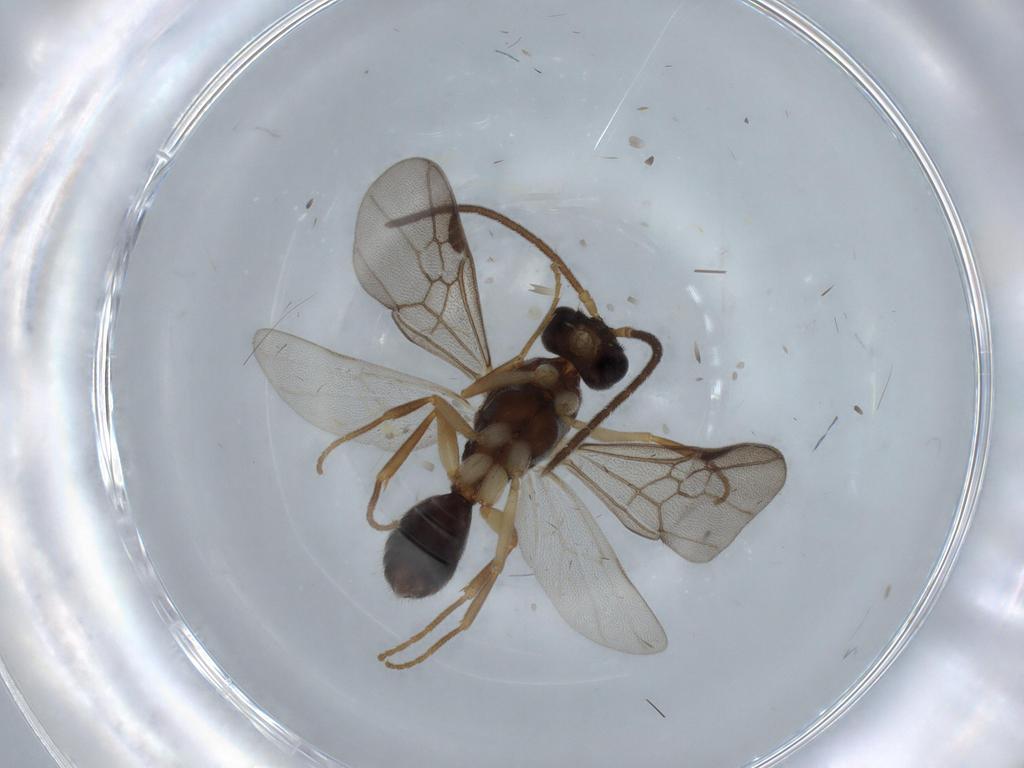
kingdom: Animalia
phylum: Arthropoda
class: Insecta
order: Hymenoptera
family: Formicidae
